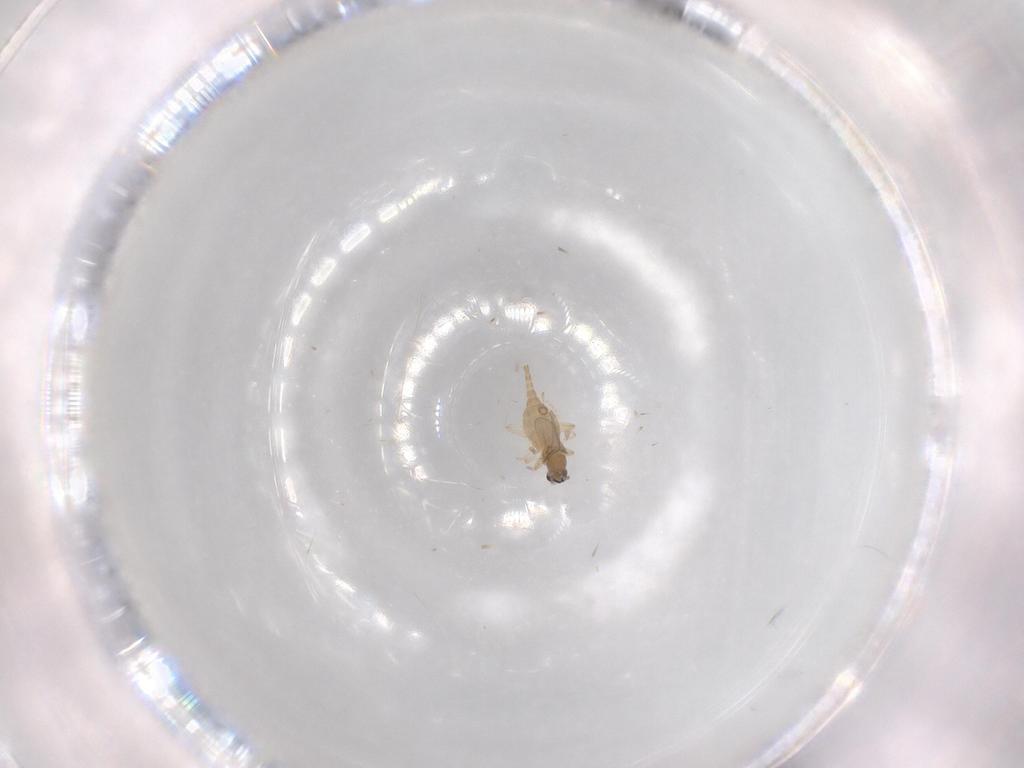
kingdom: Animalia
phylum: Arthropoda
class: Insecta
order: Diptera
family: Cecidomyiidae
